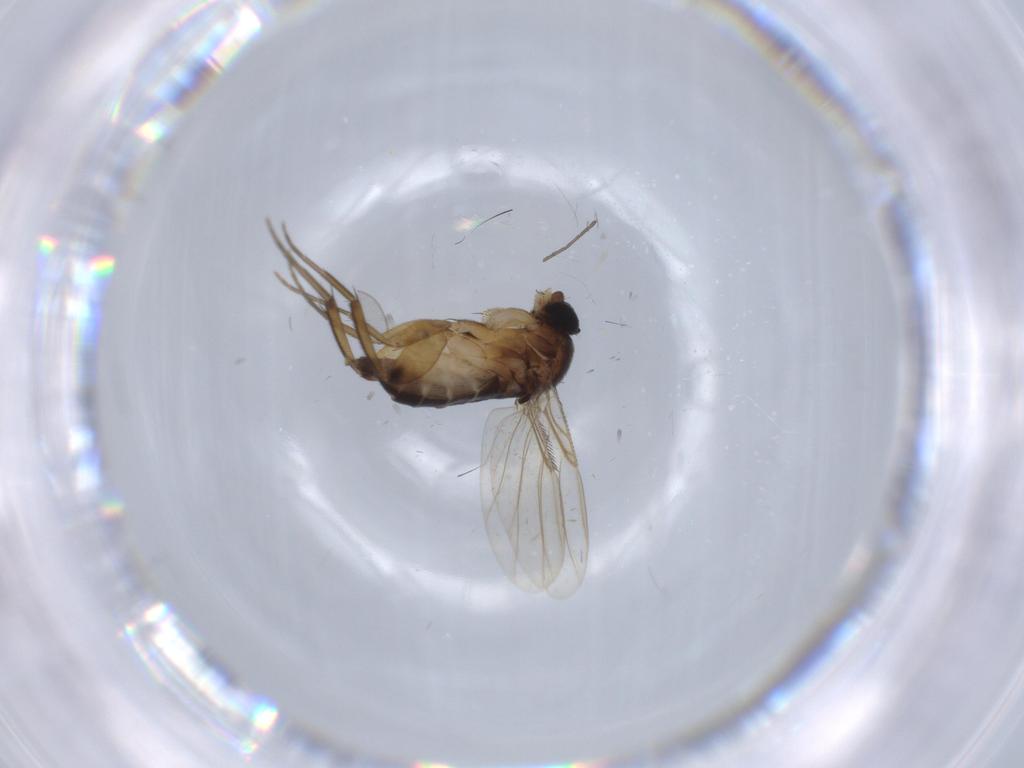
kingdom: Animalia
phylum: Arthropoda
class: Insecta
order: Diptera
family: Cecidomyiidae
